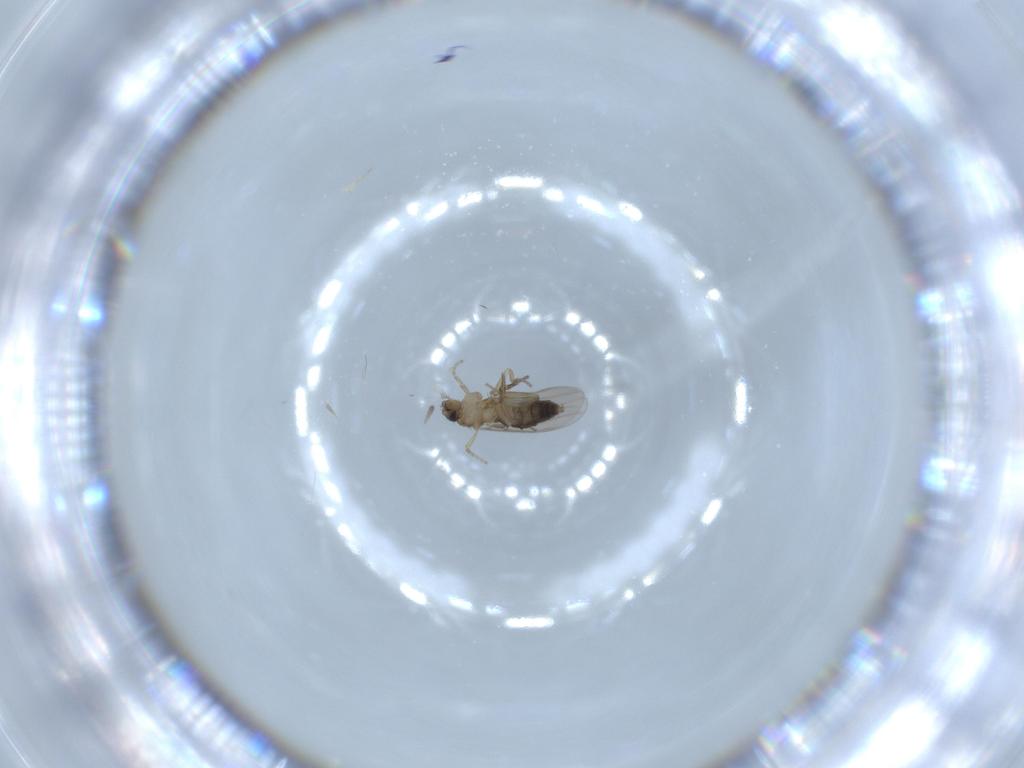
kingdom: Animalia
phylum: Arthropoda
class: Insecta
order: Diptera
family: Phoridae
